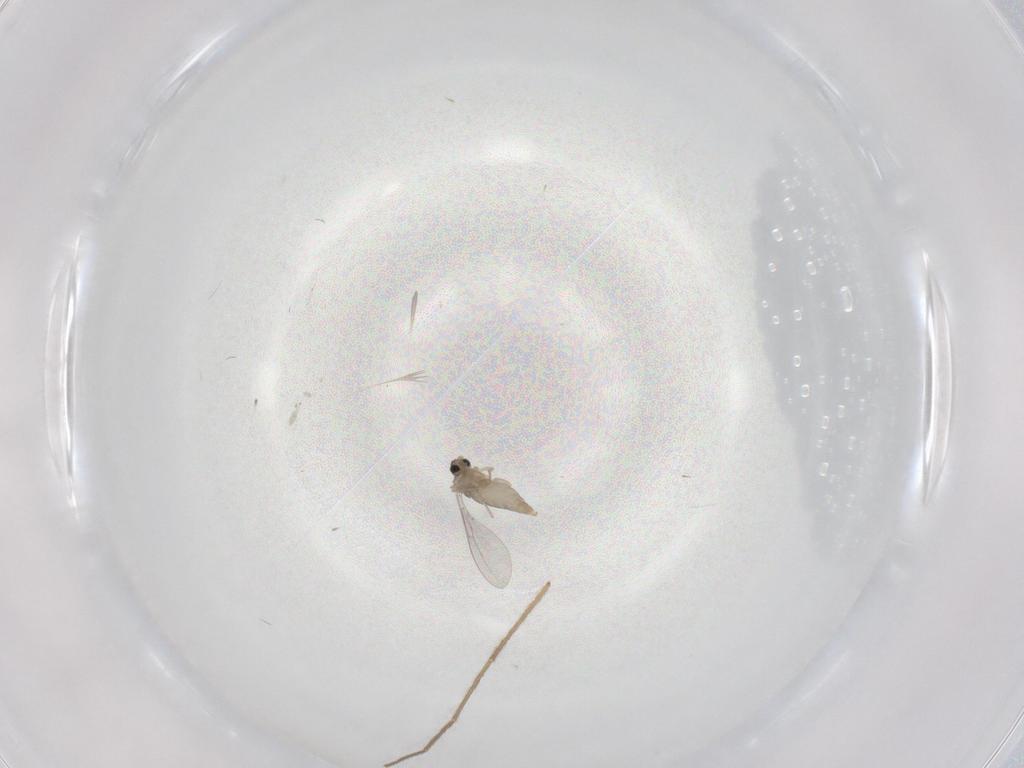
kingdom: Animalia
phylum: Arthropoda
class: Insecta
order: Diptera
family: Cecidomyiidae
